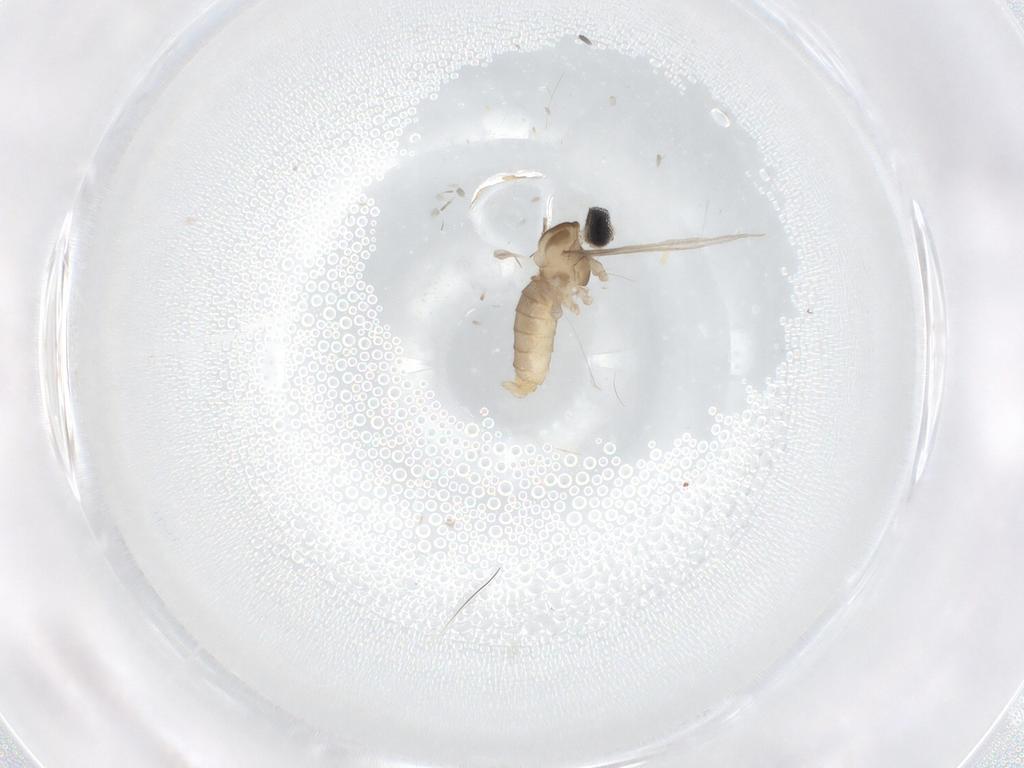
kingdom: Animalia
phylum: Arthropoda
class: Insecta
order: Diptera
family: Cecidomyiidae
